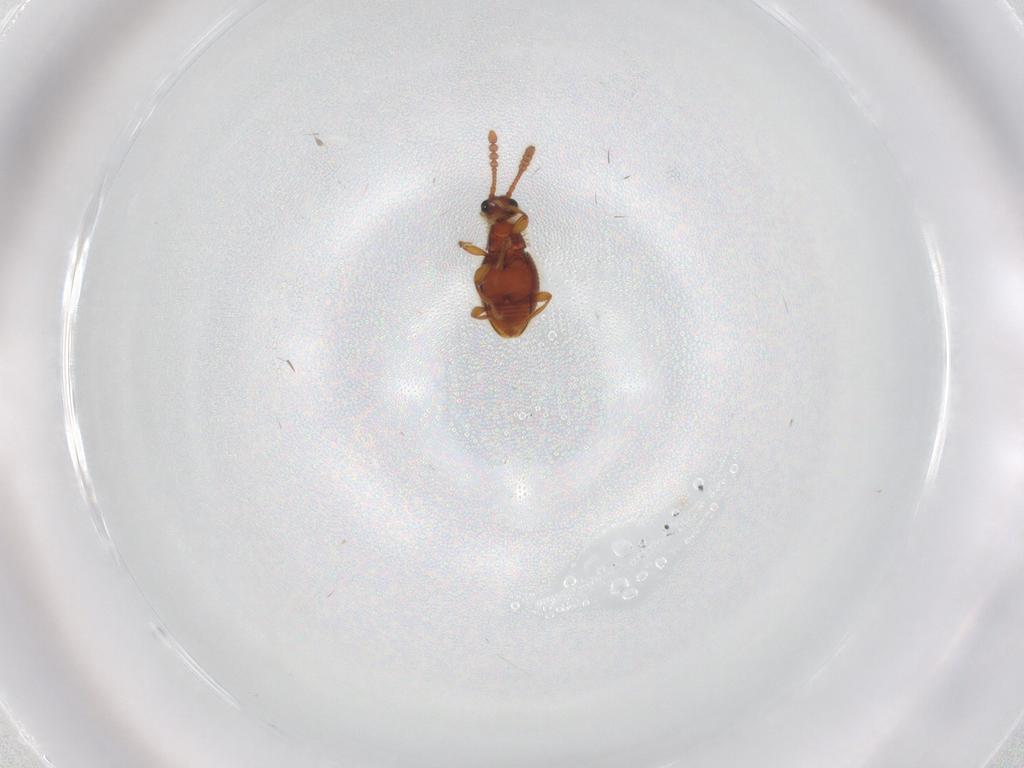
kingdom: Animalia
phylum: Arthropoda
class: Insecta
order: Coleoptera
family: Staphylinidae
